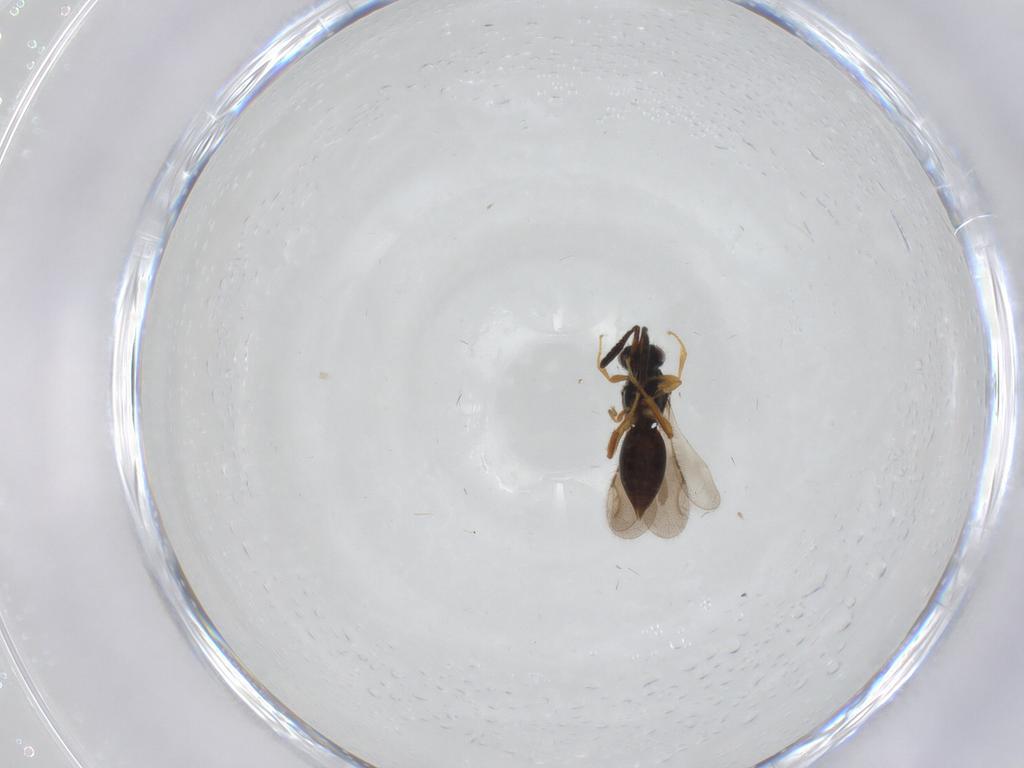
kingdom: Animalia
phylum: Arthropoda
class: Insecta
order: Hymenoptera
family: Ceraphronidae
